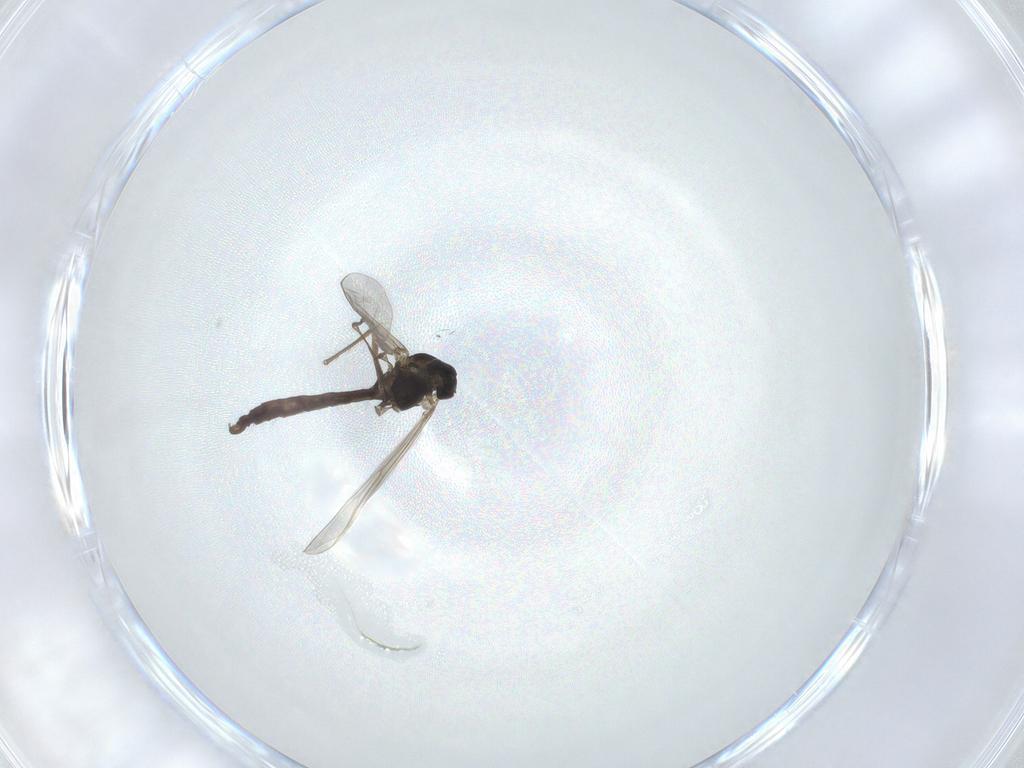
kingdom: Animalia
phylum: Arthropoda
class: Insecta
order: Diptera
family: Chironomidae
